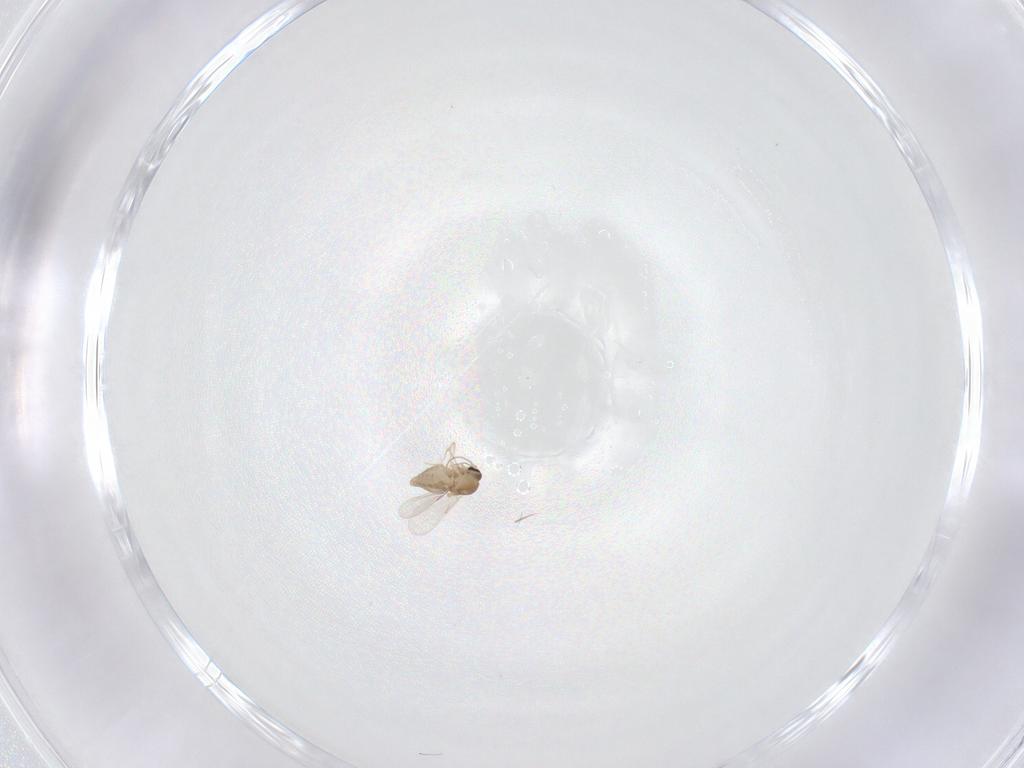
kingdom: Animalia
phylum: Arthropoda
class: Insecta
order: Diptera
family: Ceratopogonidae
